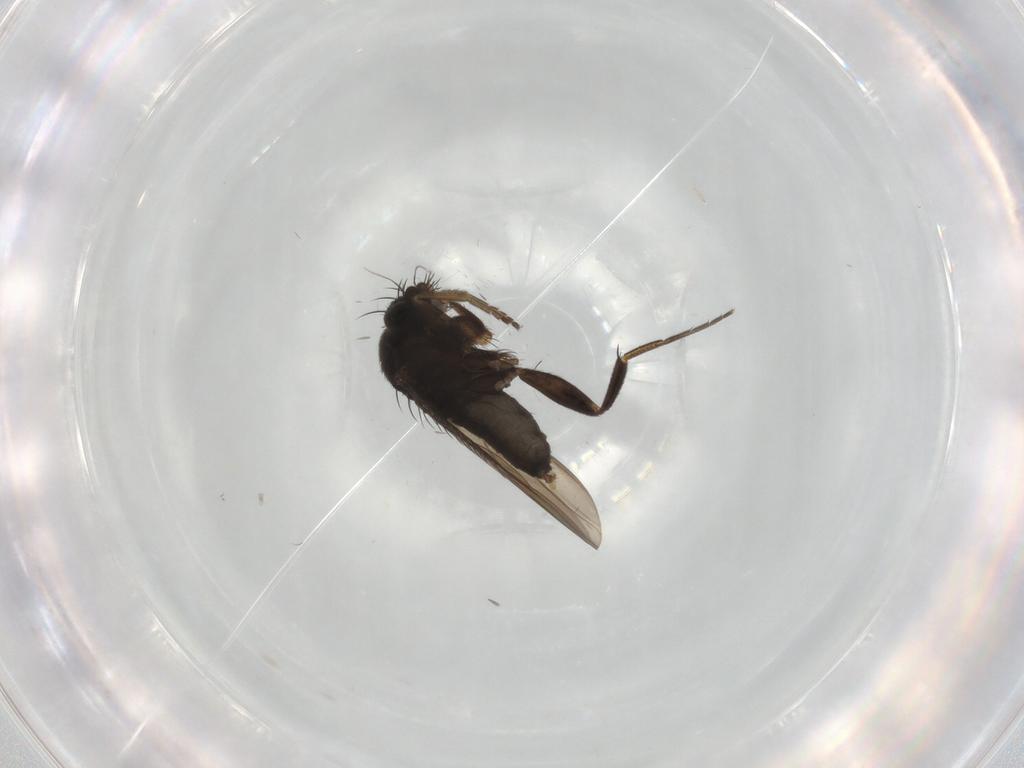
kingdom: Animalia
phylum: Arthropoda
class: Insecta
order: Diptera
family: Phoridae
